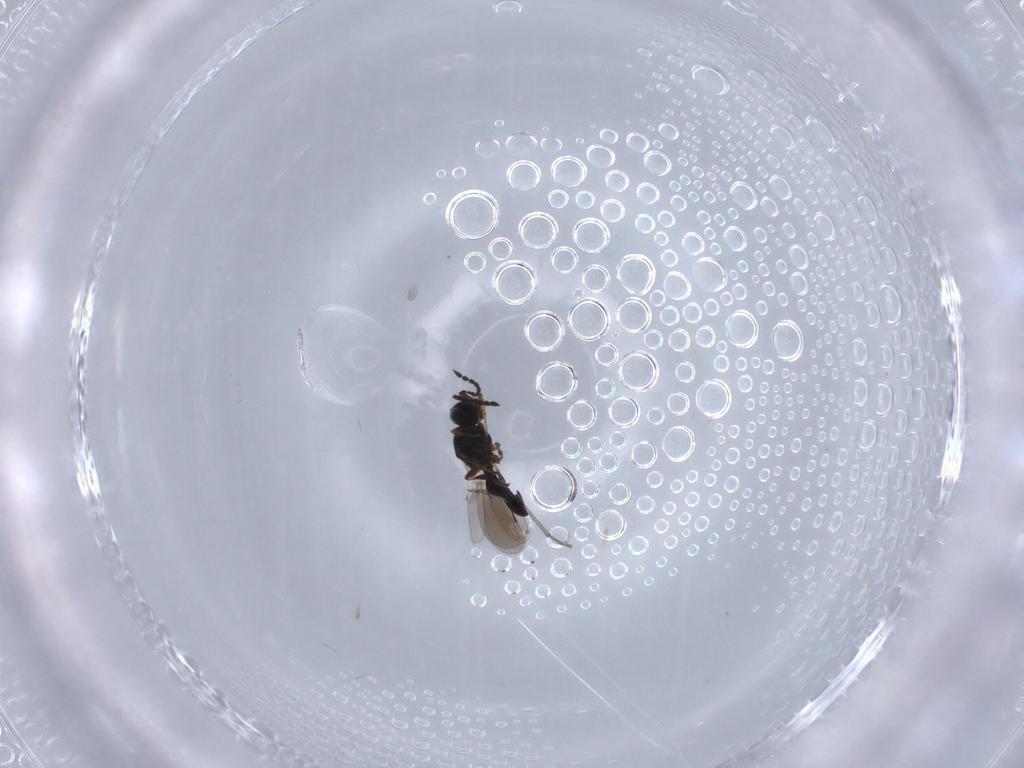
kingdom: Animalia
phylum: Arthropoda
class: Insecta
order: Hymenoptera
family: Platygastridae
